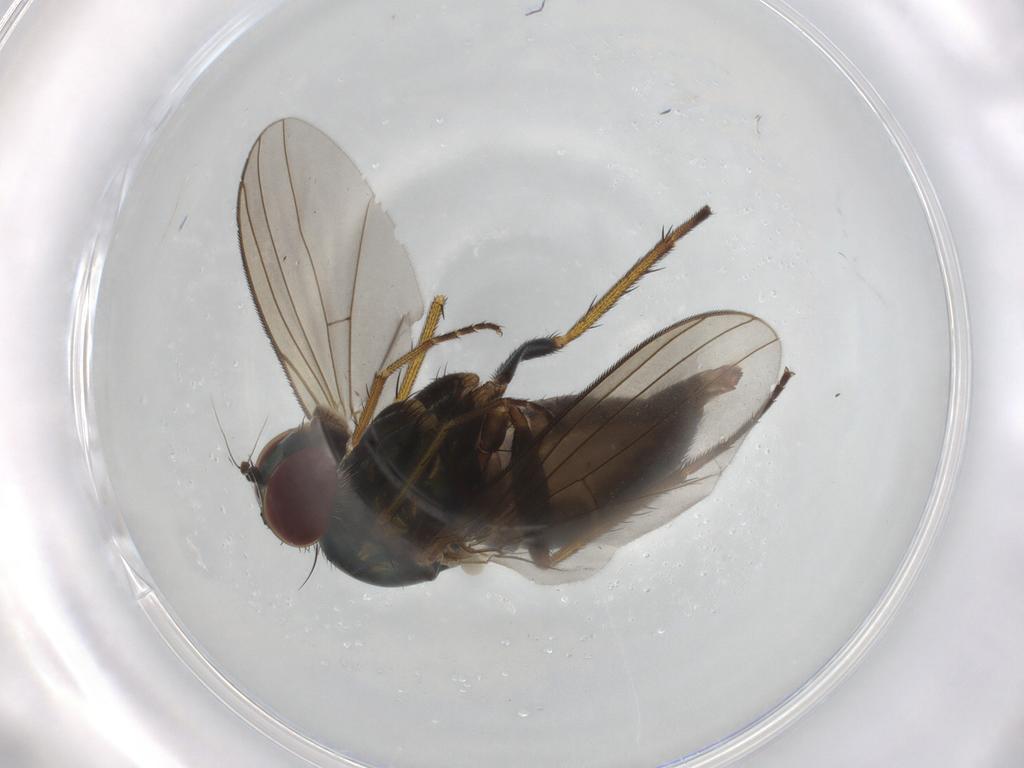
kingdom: Animalia
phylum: Arthropoda
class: Insecta
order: Diptera
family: Dolichopodidae
